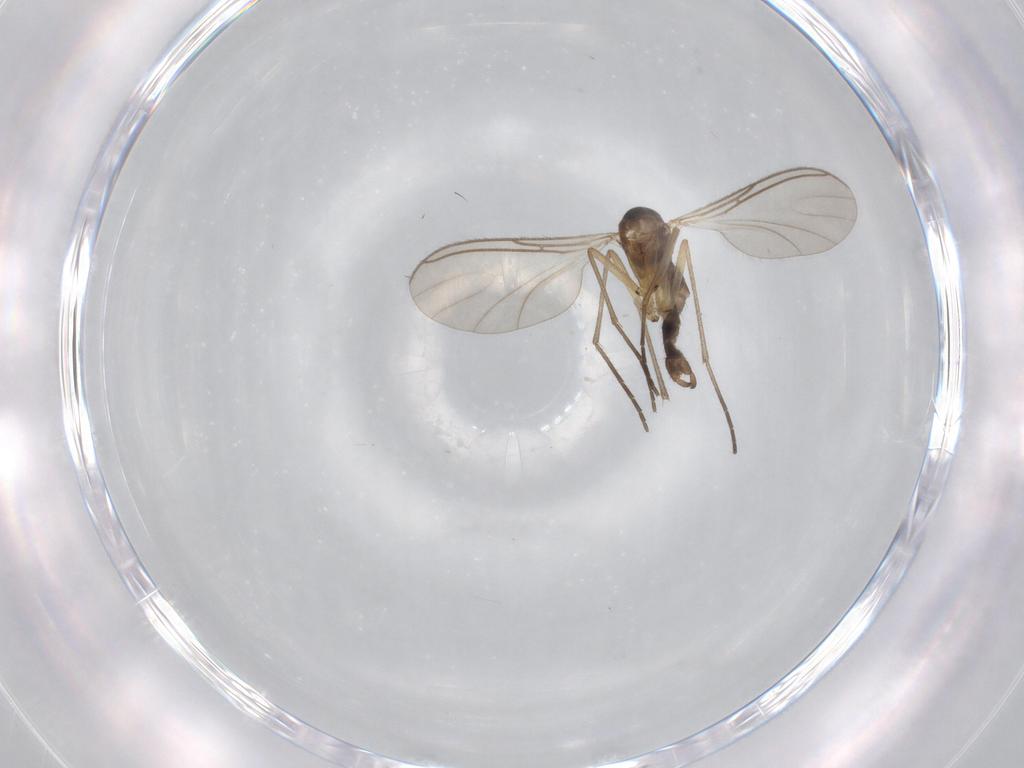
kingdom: Animalia
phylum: Arthropoda
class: Insecta
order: Diptera
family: Sciaridae
